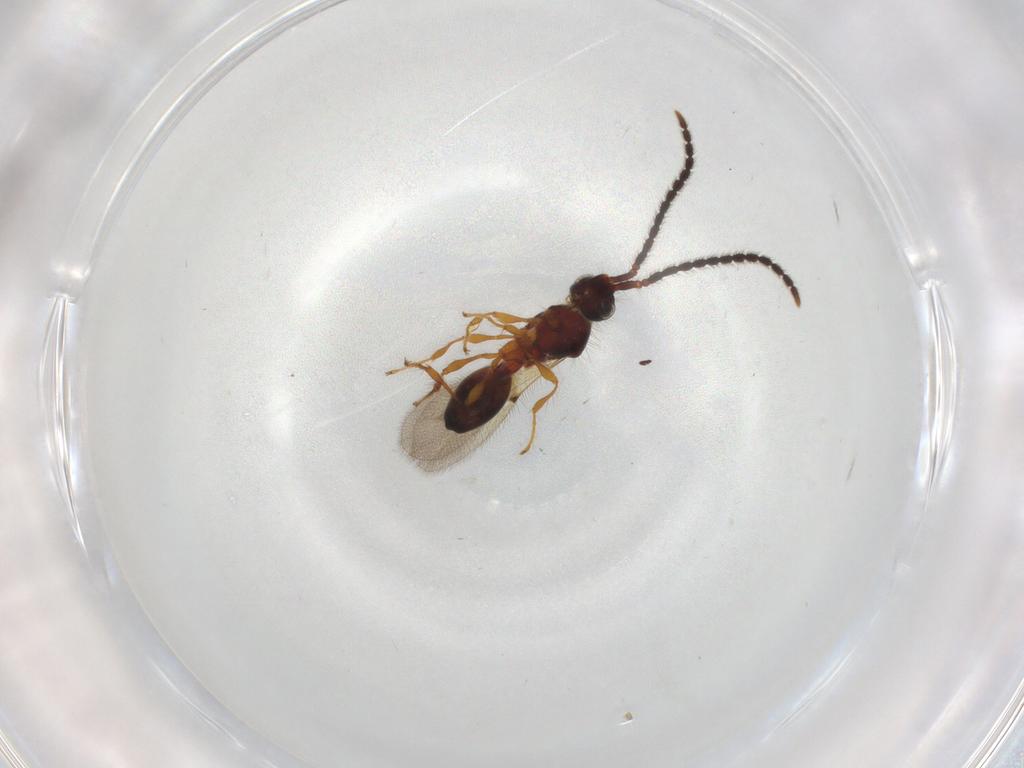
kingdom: Animalia
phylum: Arthropoda
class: Insecta
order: Hymenoptera
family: Diapriidae
